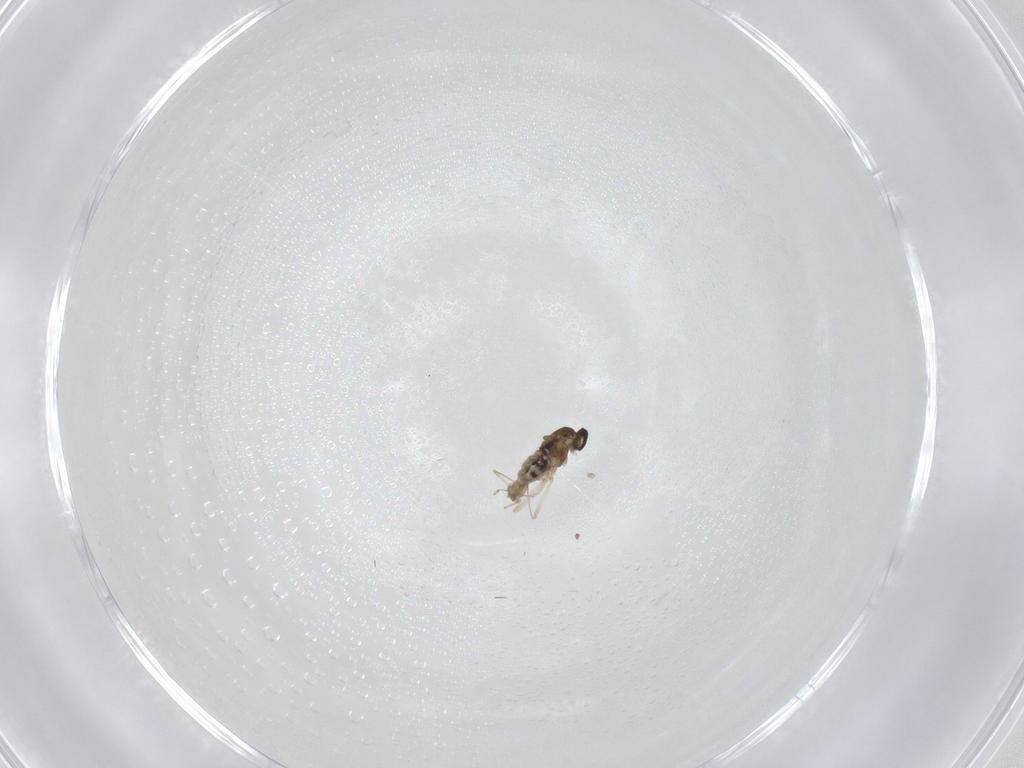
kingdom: Animalia
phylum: Arthropoda
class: Insecta
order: Diptera
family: Cecidomyiidae
